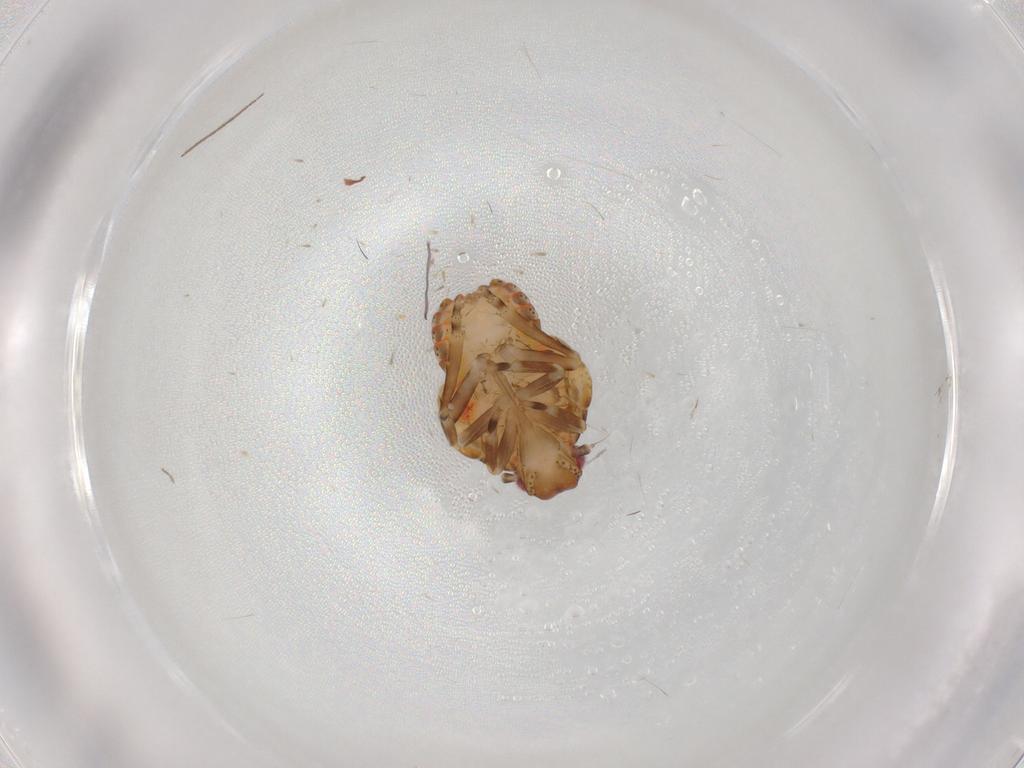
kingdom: Animalia
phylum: Arthropoda
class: Insecta
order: Hemiptera
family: Flatidae
